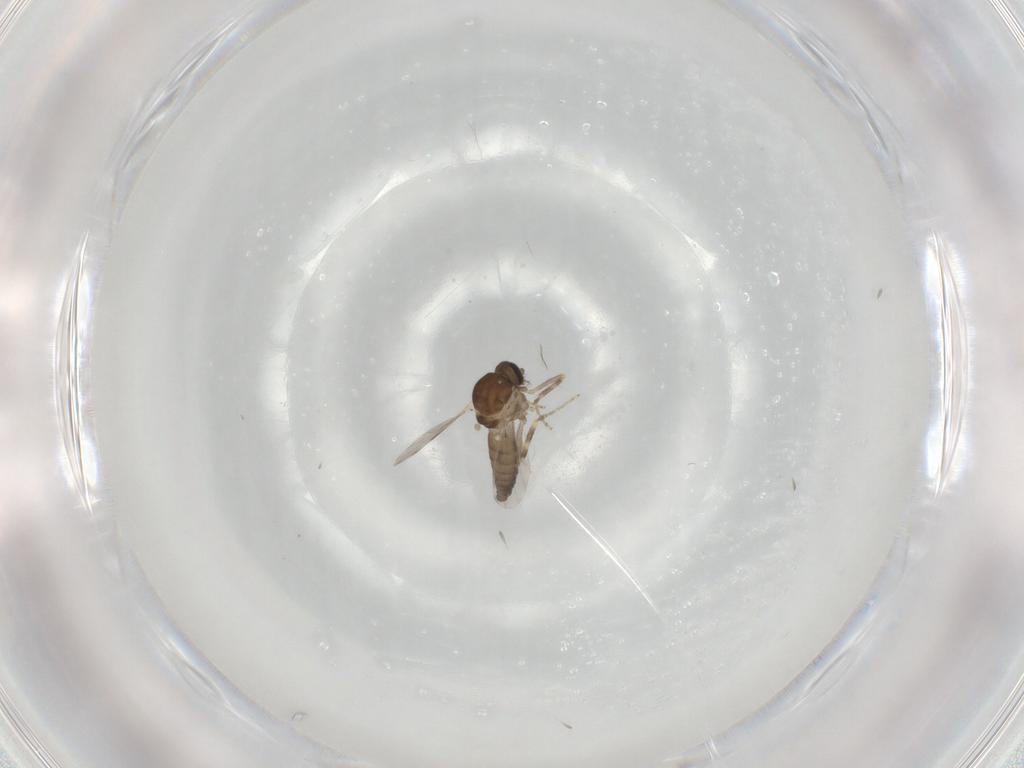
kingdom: Animalia
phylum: Arthropoda
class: Insecta
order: Diptera
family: Ceratopogonidae
